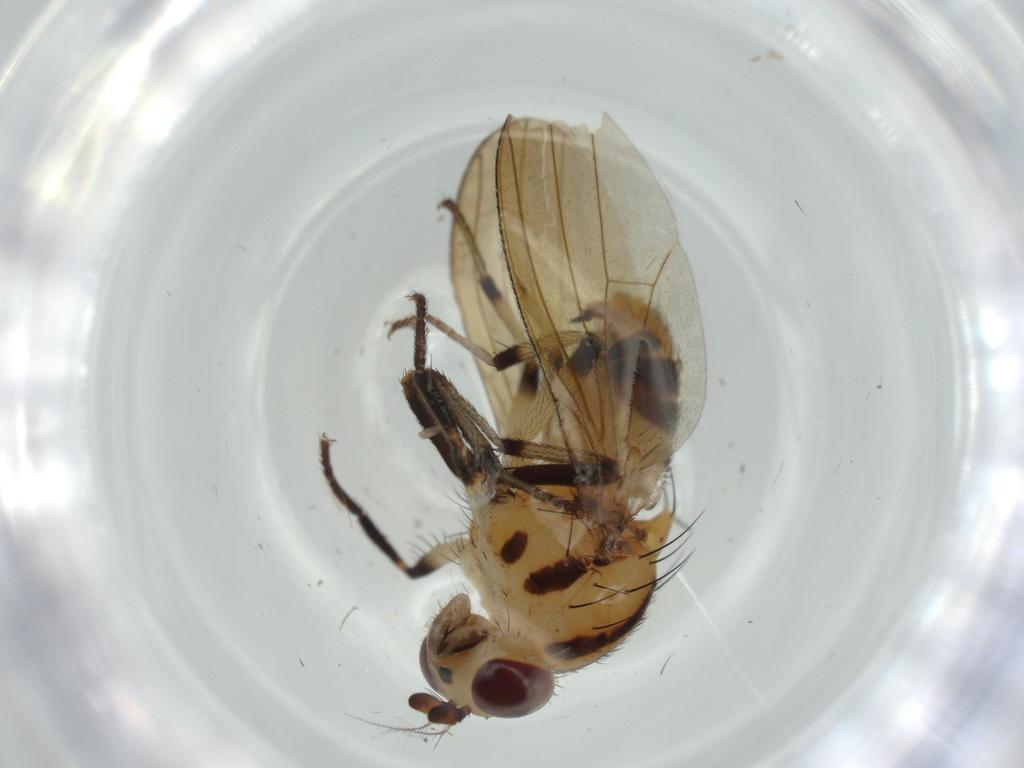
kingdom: Animalia
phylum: Arthropoda
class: Insecta
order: Diptera
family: Lauxaniidae
